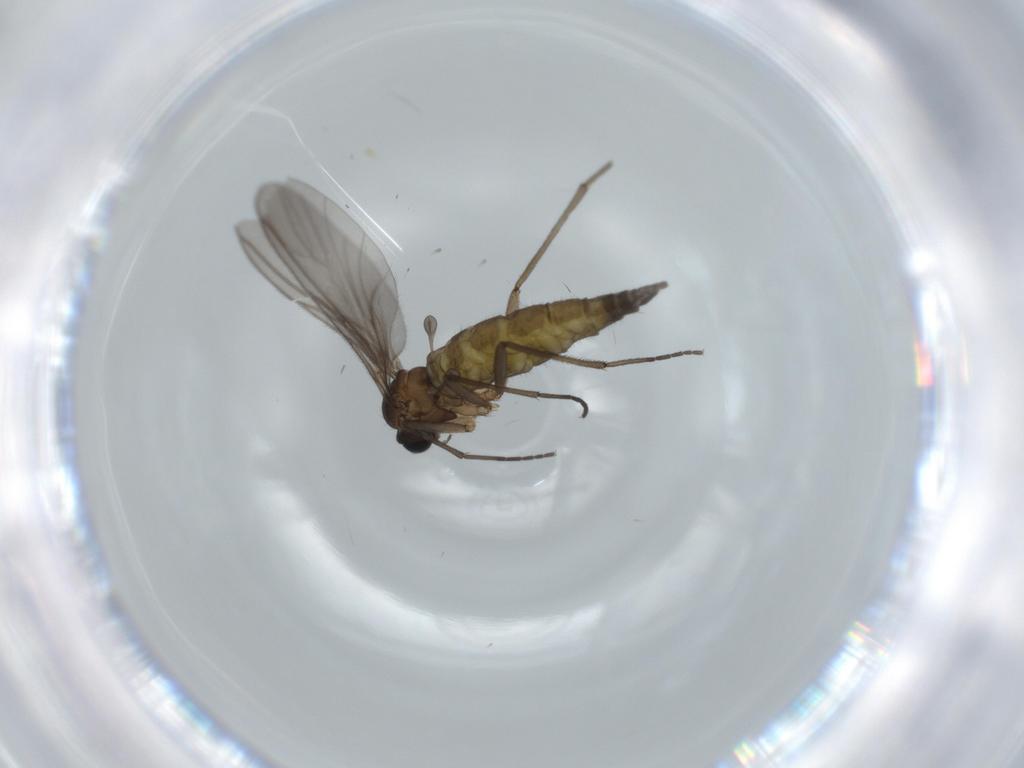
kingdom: Animalia
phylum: Arthropoda
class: Insecta
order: Diptera
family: Sciaridae
